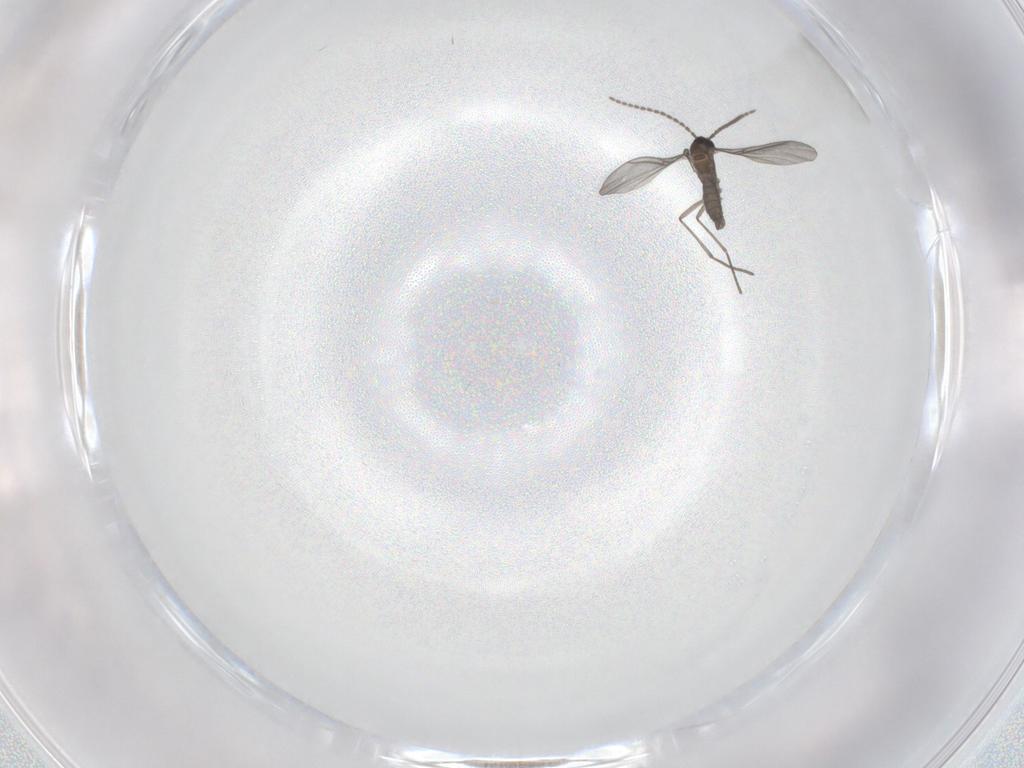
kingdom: Animalia
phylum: Arthropoda
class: Insecta
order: Diptera
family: Sciaridae
